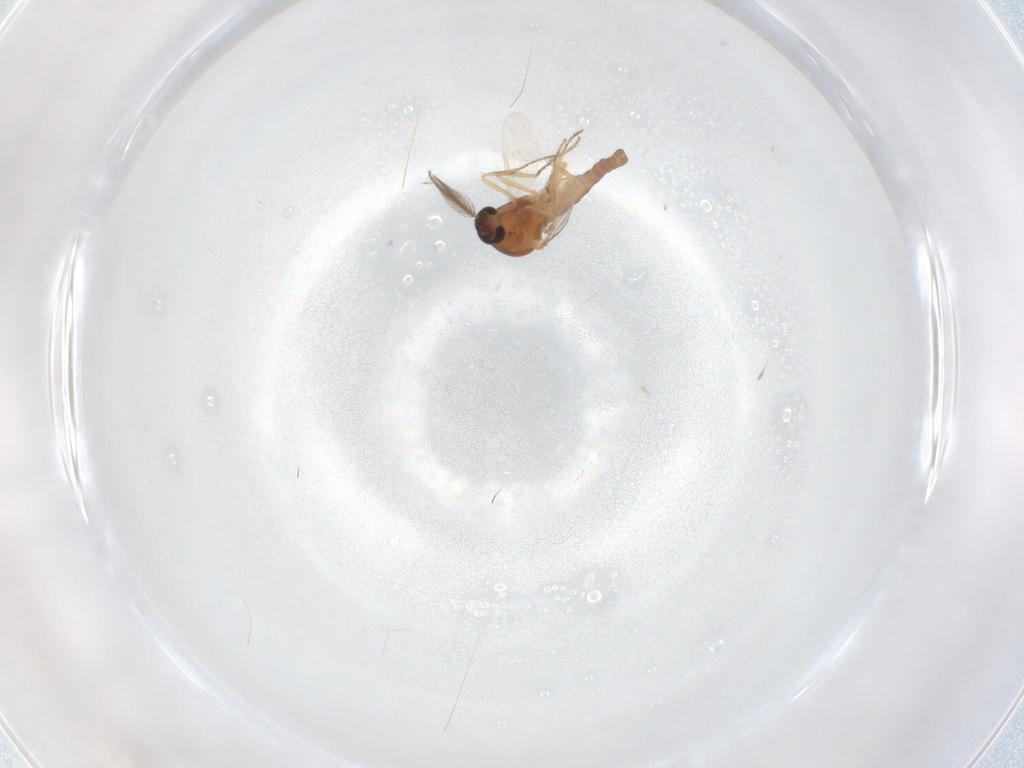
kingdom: Animalia
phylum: Arthropoda
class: Insecta
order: Diptera
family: Ceratopogonidae
